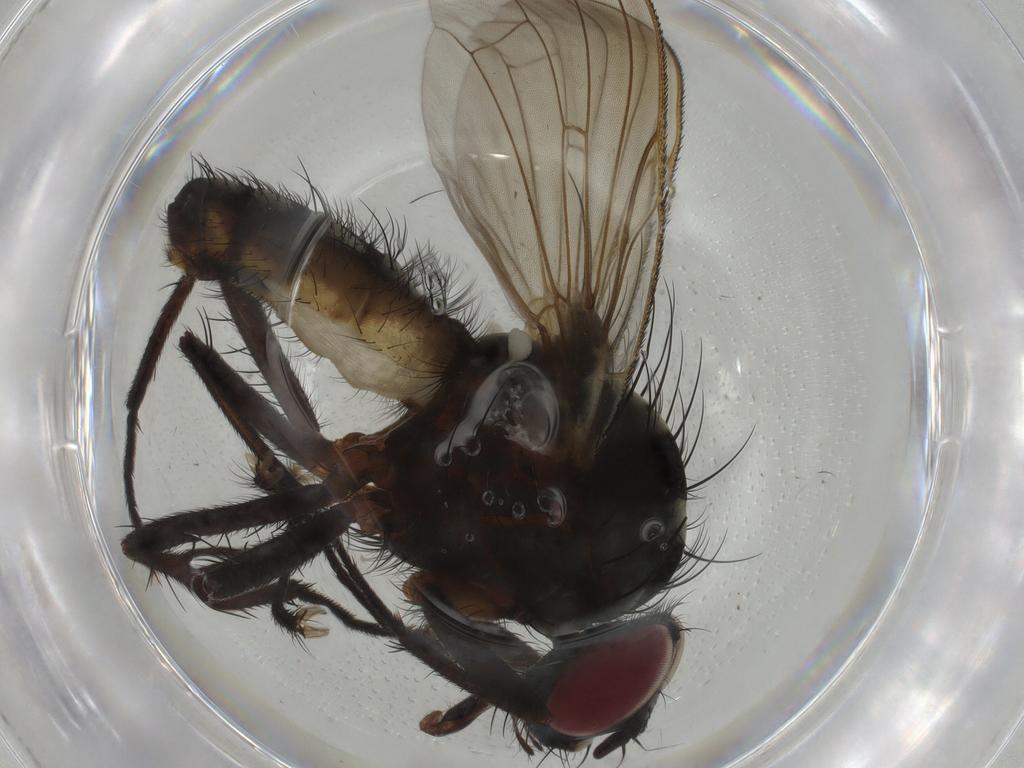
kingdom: Animalia
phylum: Arthropoda
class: Insecta
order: Diptera
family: Anthomyiidae
